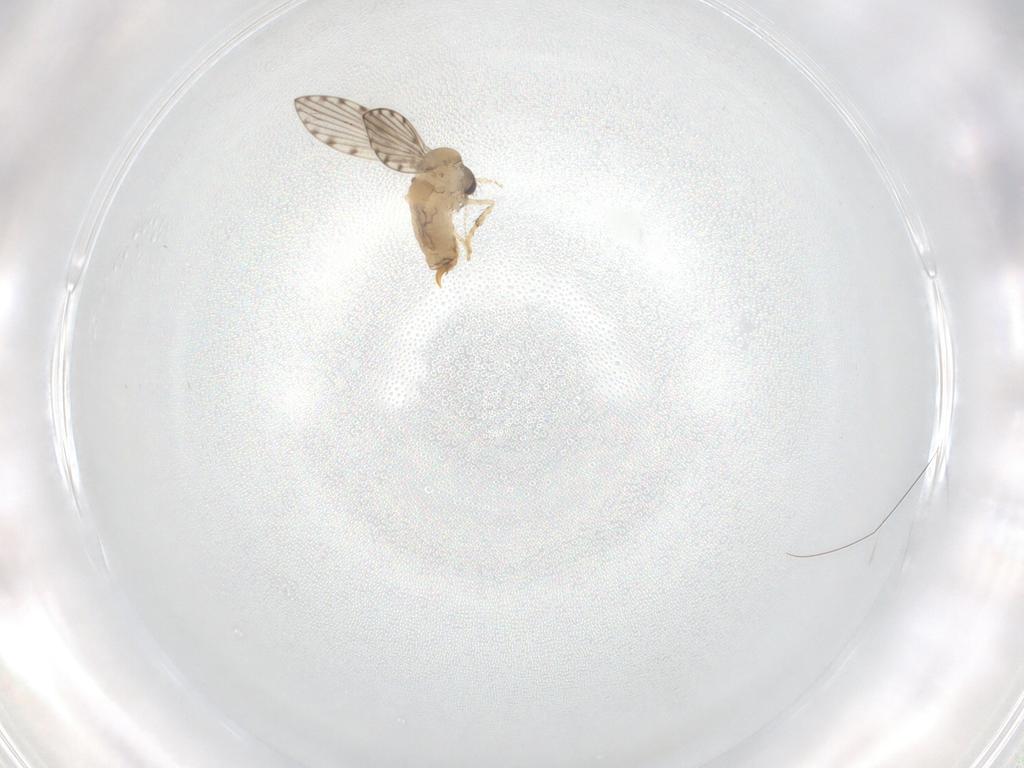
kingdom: Animalia
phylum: Arthropoda
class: Insecta
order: Diptera
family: Psychodidae
